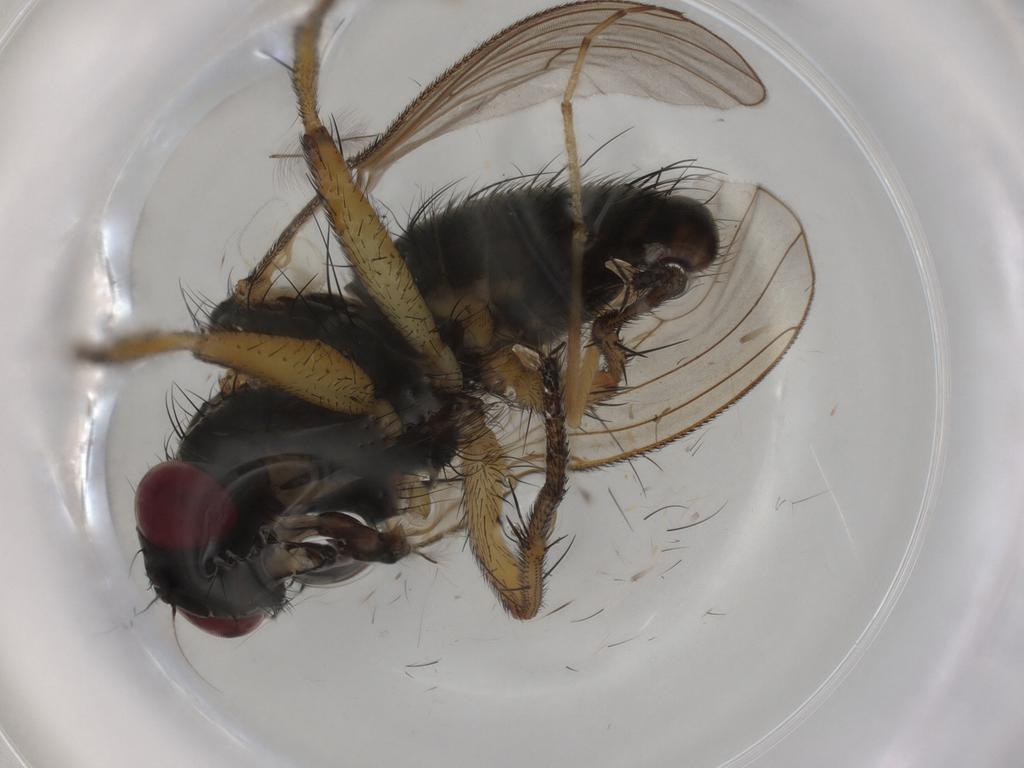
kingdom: Animalia
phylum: Arthropoda
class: Insecta
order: Diptera
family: Muscidae
